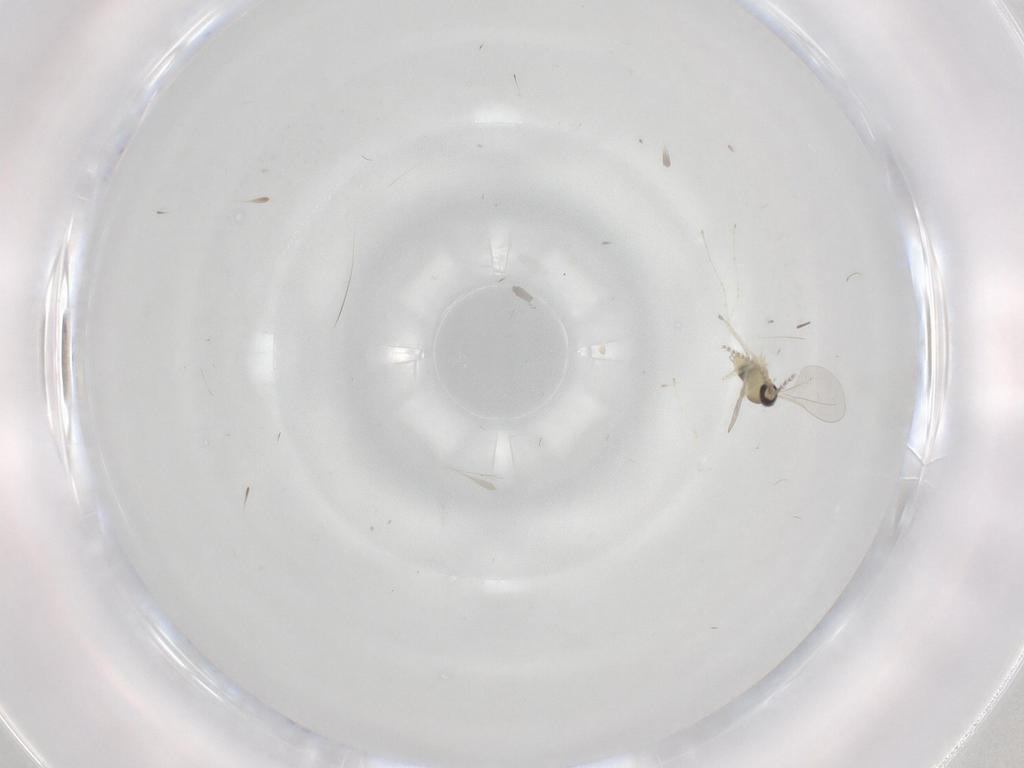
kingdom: Animalia
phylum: Arthropoda
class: Insecta
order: Diptera
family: Cecidomyiidae
